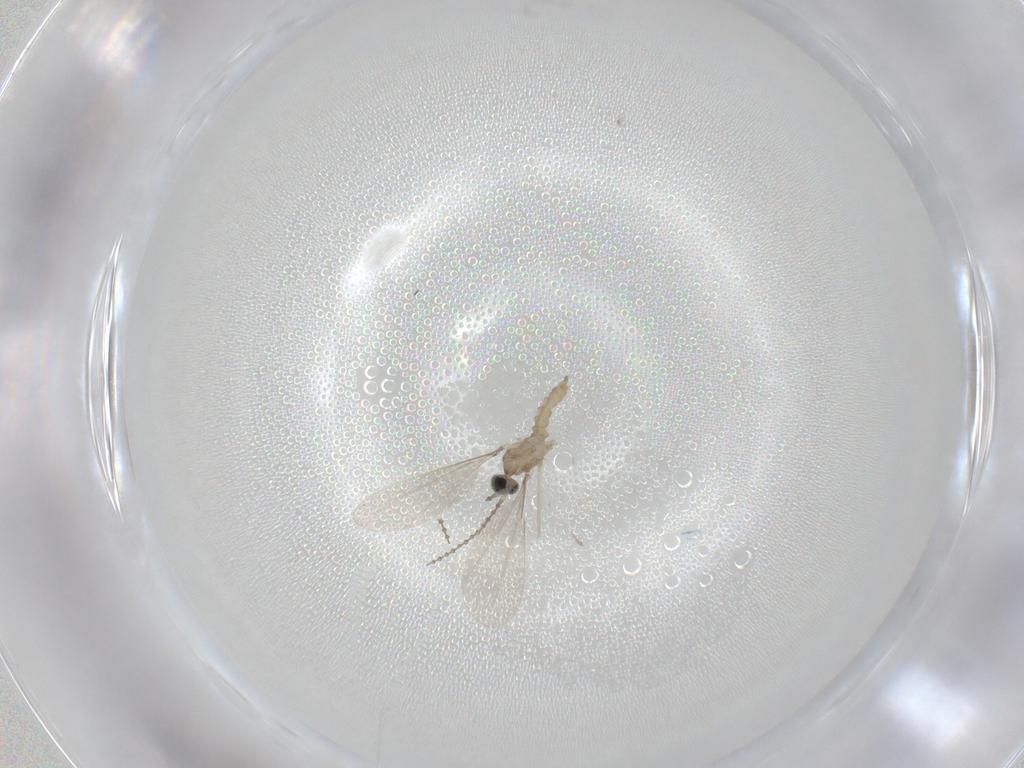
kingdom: Animalia
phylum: Arthropoda
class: Insecta
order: Diptera
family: Cecidomyiidae
